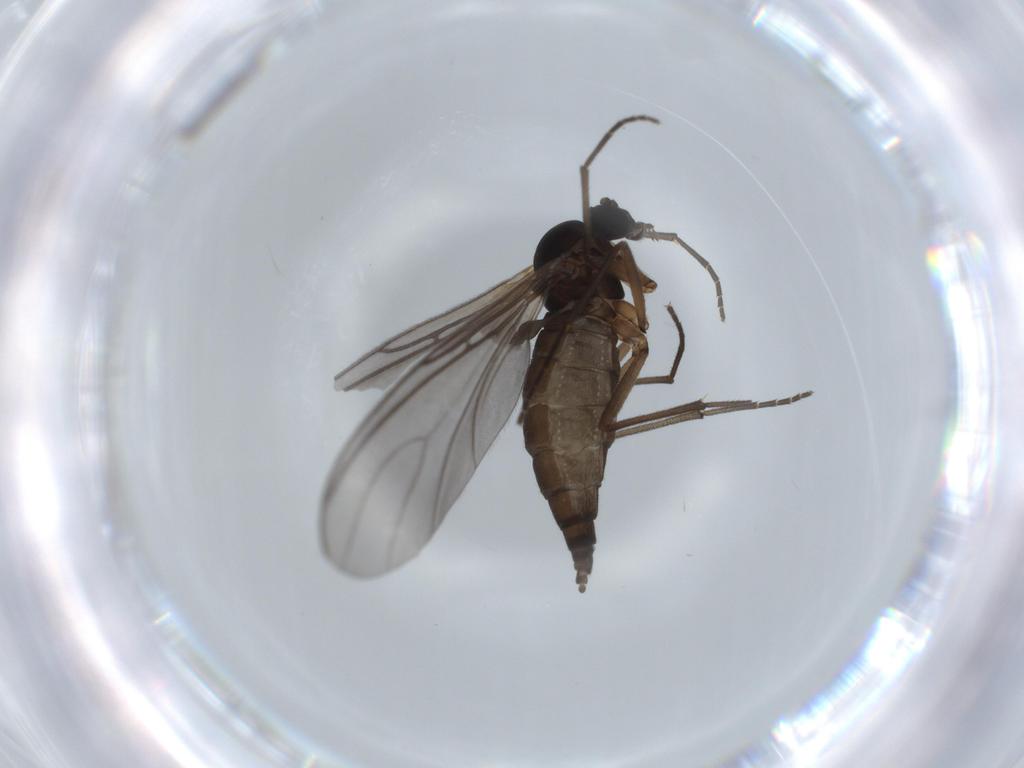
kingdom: Animalia
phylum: Arthropoda
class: Insecta
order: Diptera
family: Sciaridae
